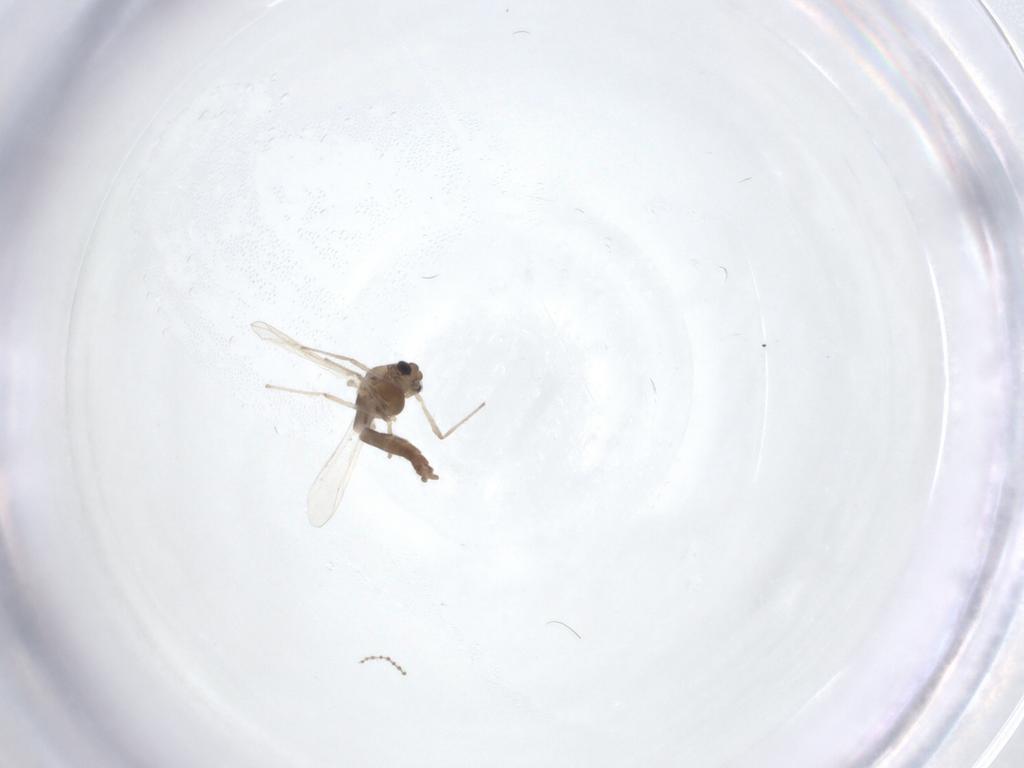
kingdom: Animalia
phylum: Arthropoda
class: Insecta
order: Diptera
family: Cecidomyiidae
